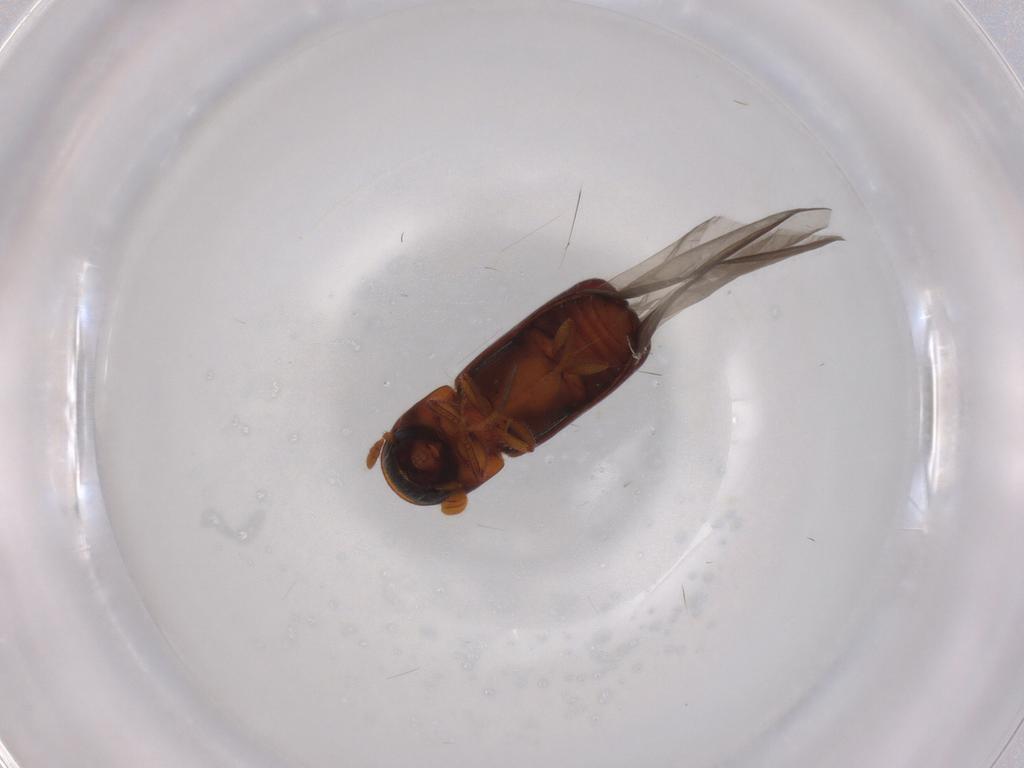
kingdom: Animalia
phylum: Arthropoda
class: Insecta
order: Coleoptera
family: Curculionidae
